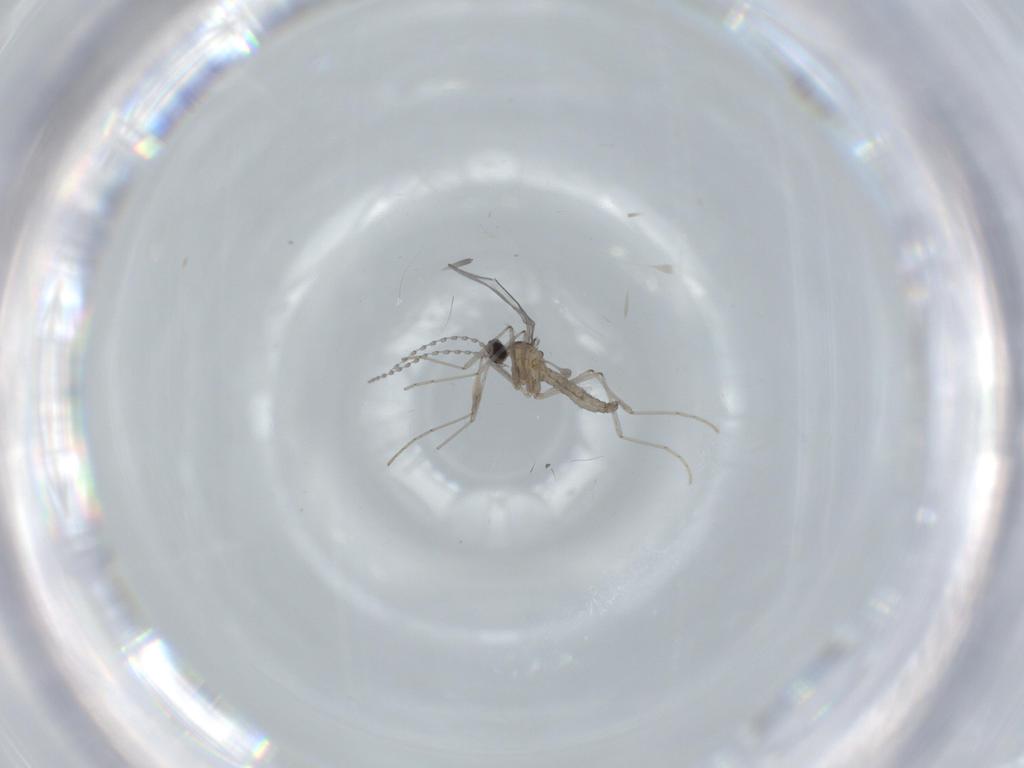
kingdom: Animalia
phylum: Arthropoda
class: Insecta
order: Diptera
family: Cecidomyiidae
